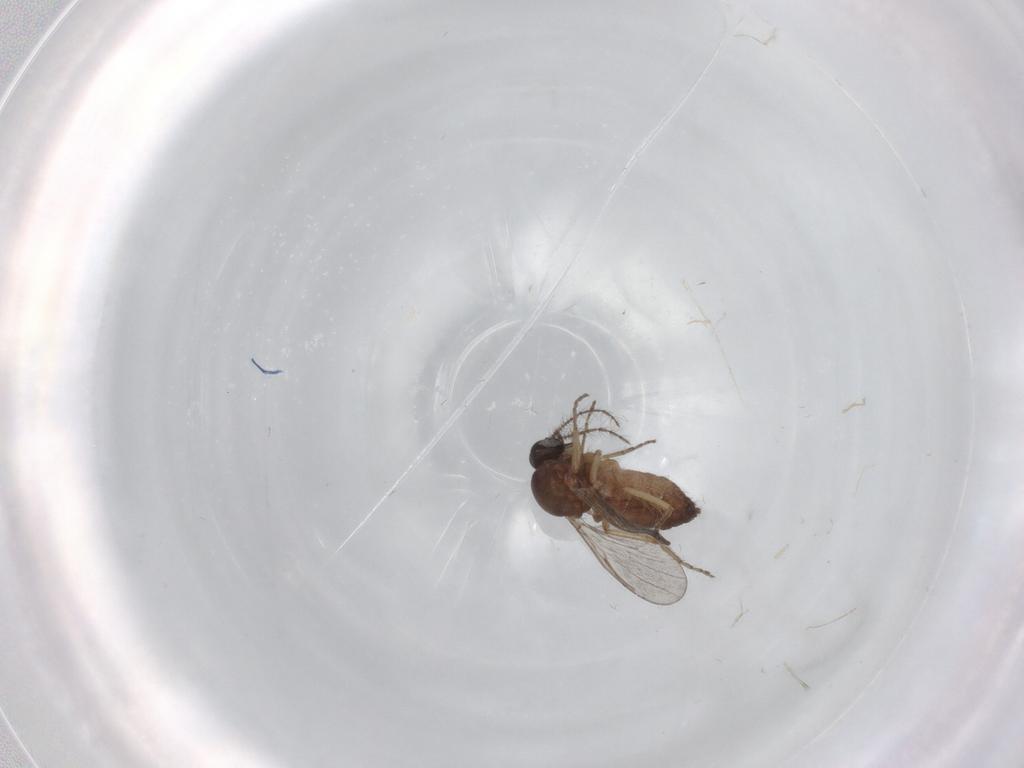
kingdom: Animalia
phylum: Arthropoda
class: Insecta
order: Diptera
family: Ceratopogonidae
